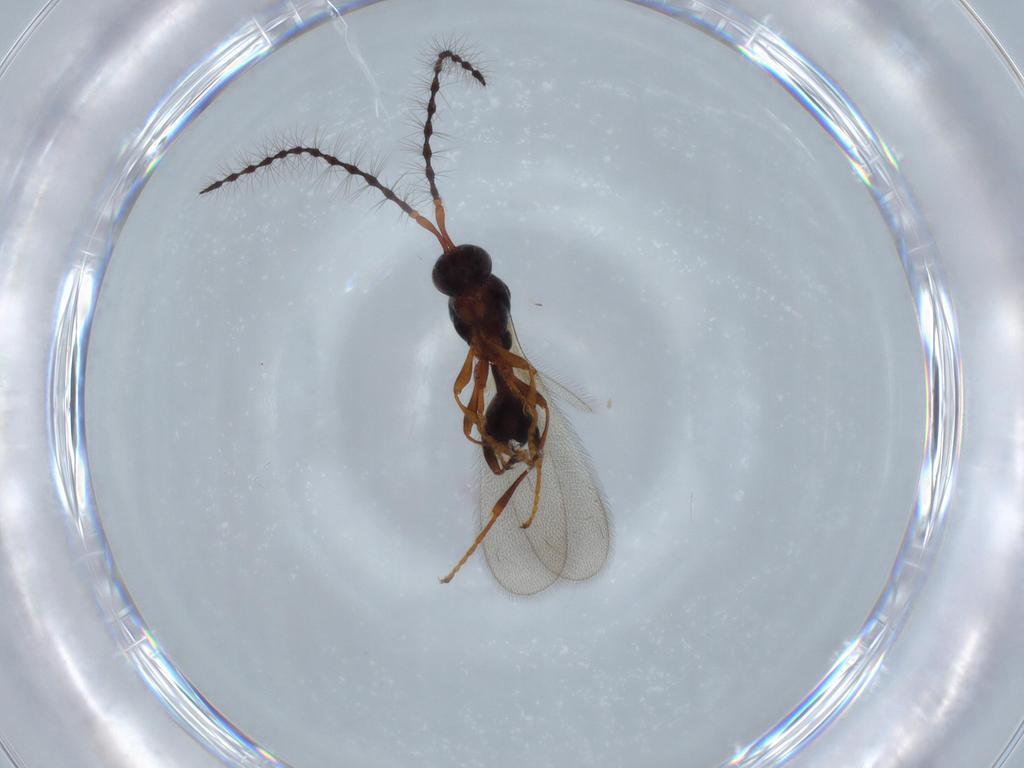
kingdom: Animalia
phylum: Arthropoda
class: Insecta
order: Hymenoptera
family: Diapriidae
